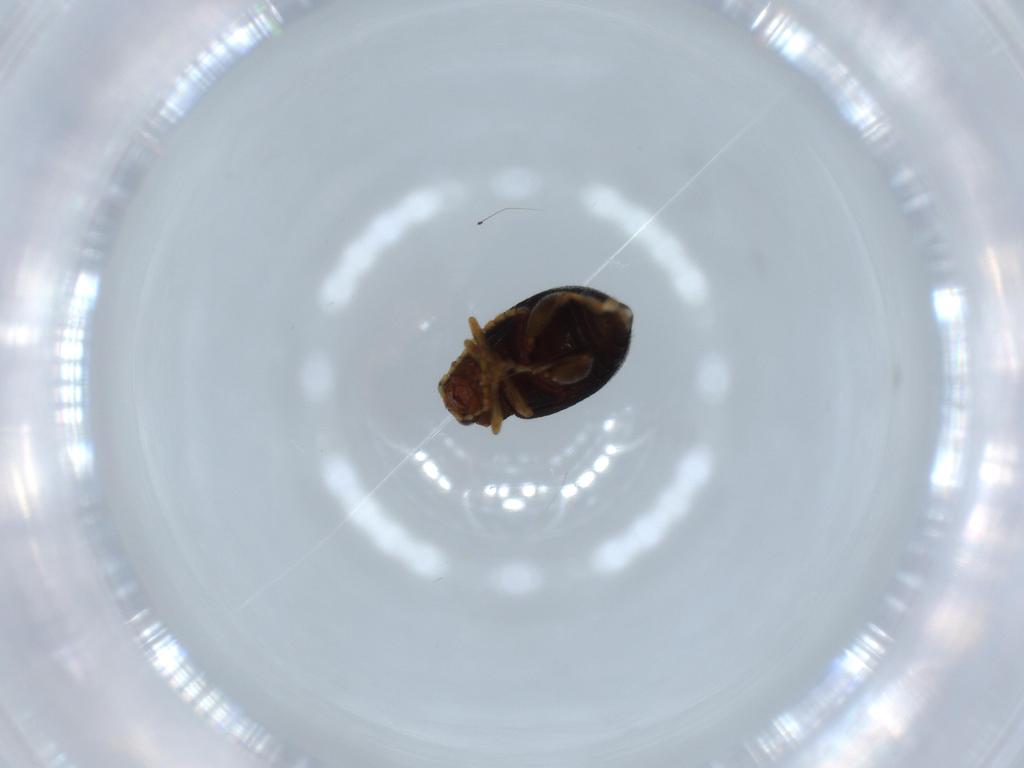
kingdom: Animalia
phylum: Arthropoda
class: Insecta
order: Coleoptera
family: Chrysomelidae
